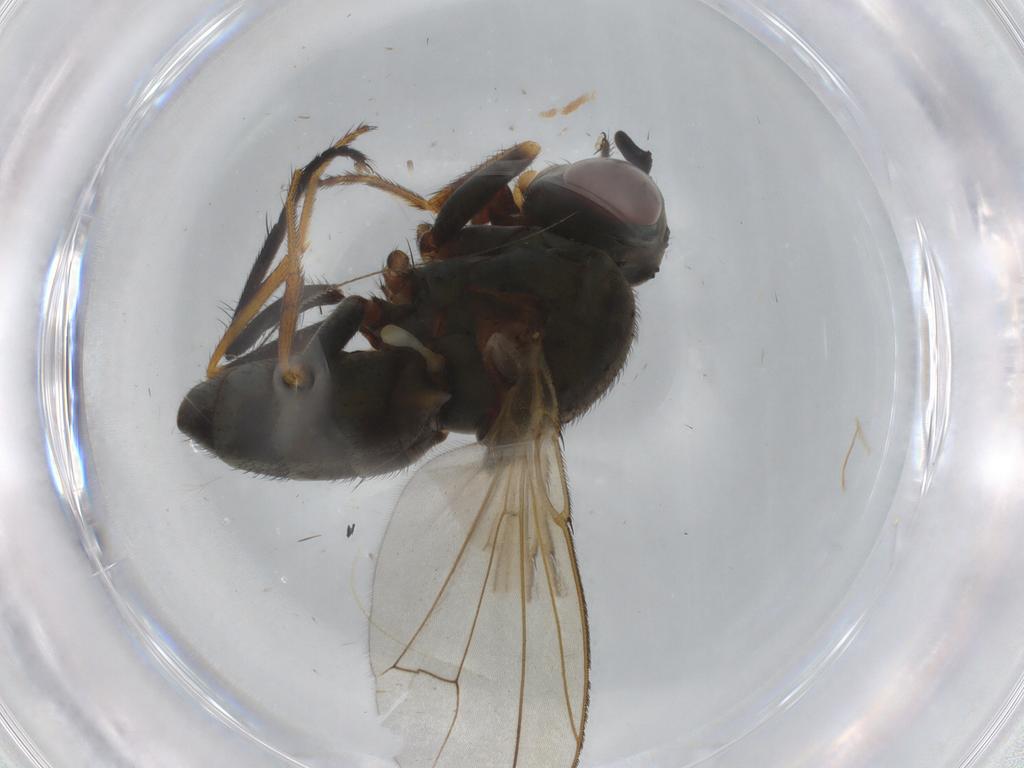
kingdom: Animalia
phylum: Arthropoda
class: Insecta
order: Diptera
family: Ephydridae
